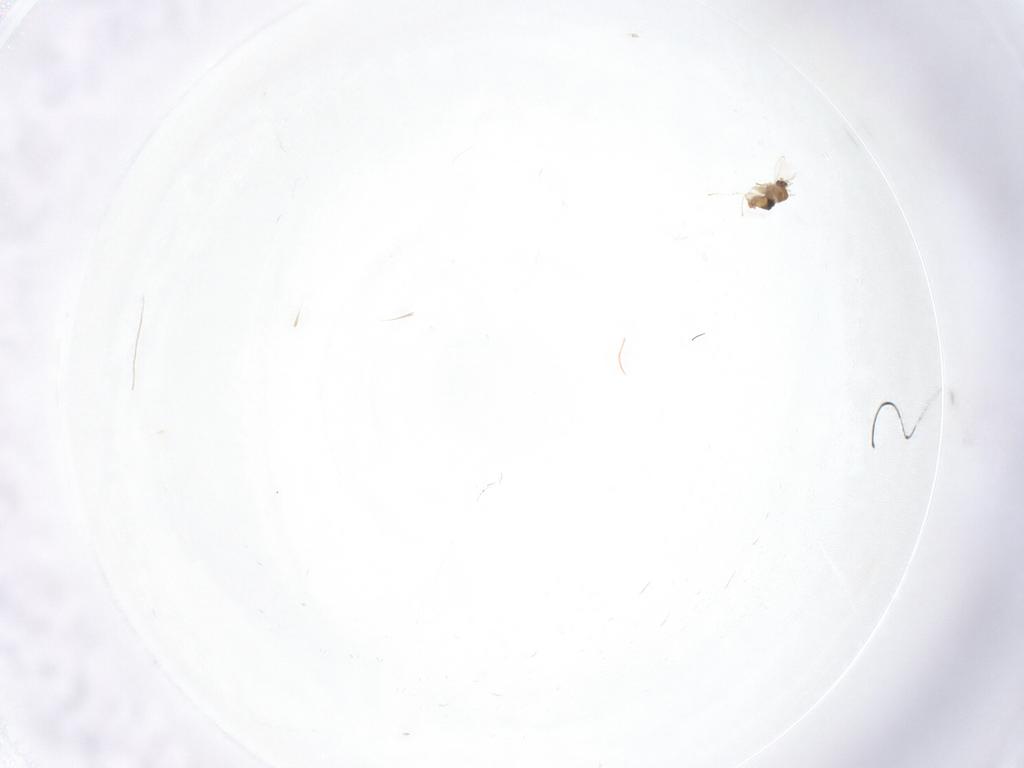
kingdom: Animalia
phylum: Arthropoda
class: Insecta
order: Diptera
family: Cecidomyiidae
